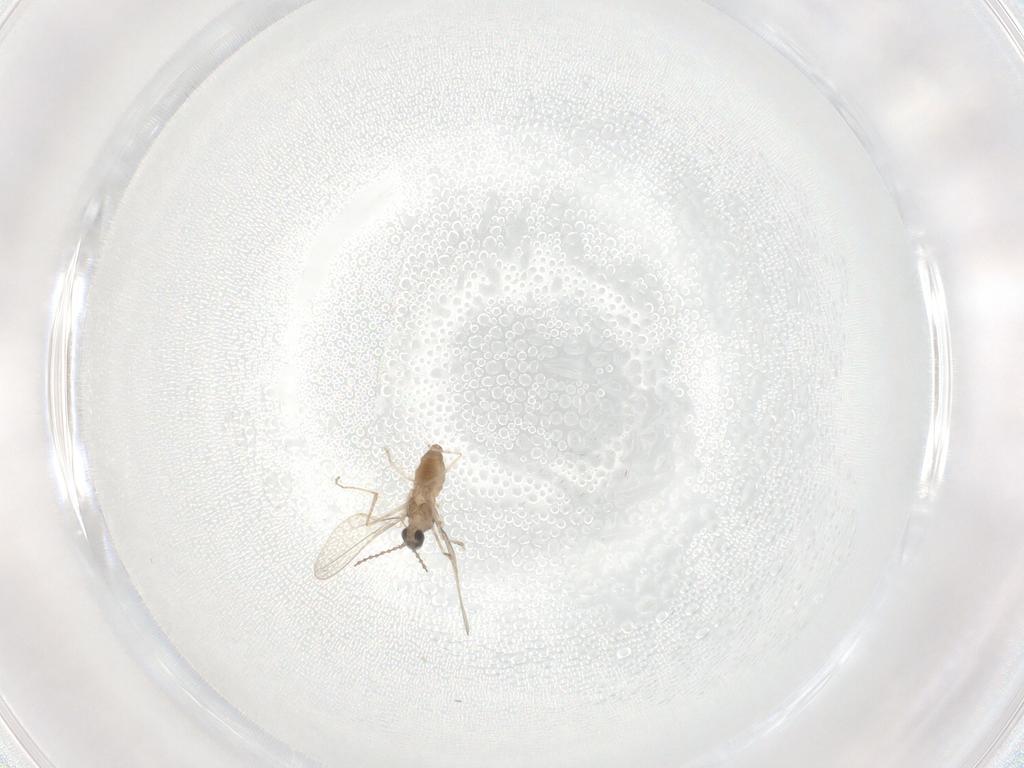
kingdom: Animalia
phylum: Arthropoda
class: Insecta
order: Diptera
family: Cecidomyiidae
